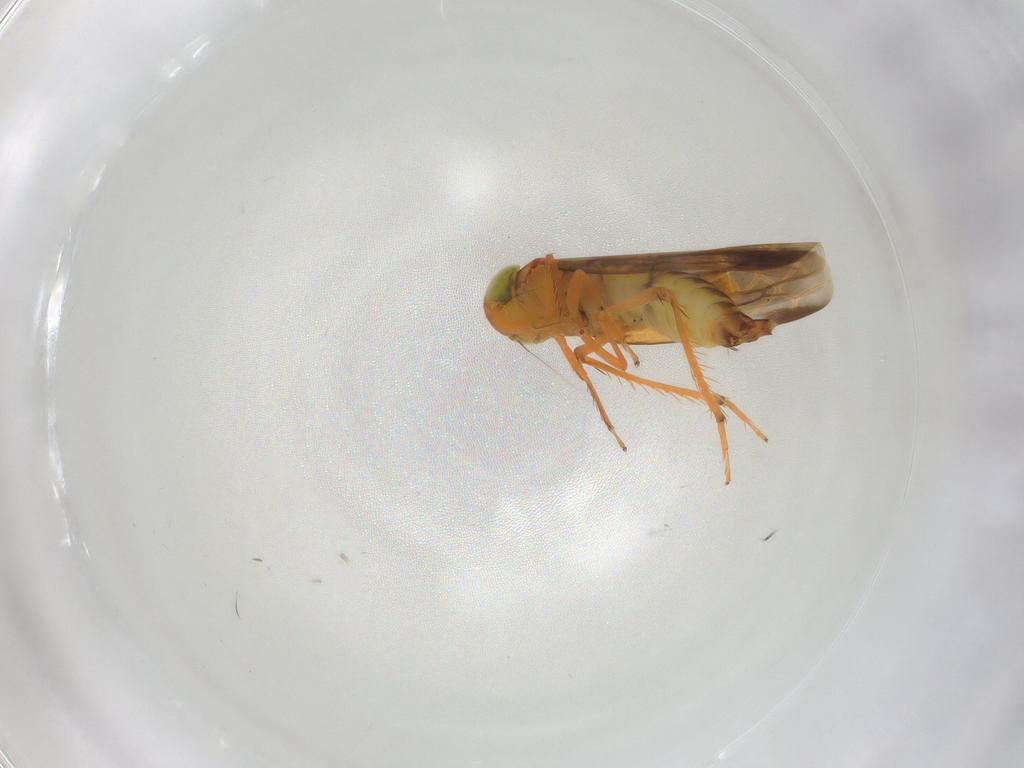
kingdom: Animalia
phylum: Arthropoda
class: Insecta
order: Hemiptera
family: Cicadellidae
